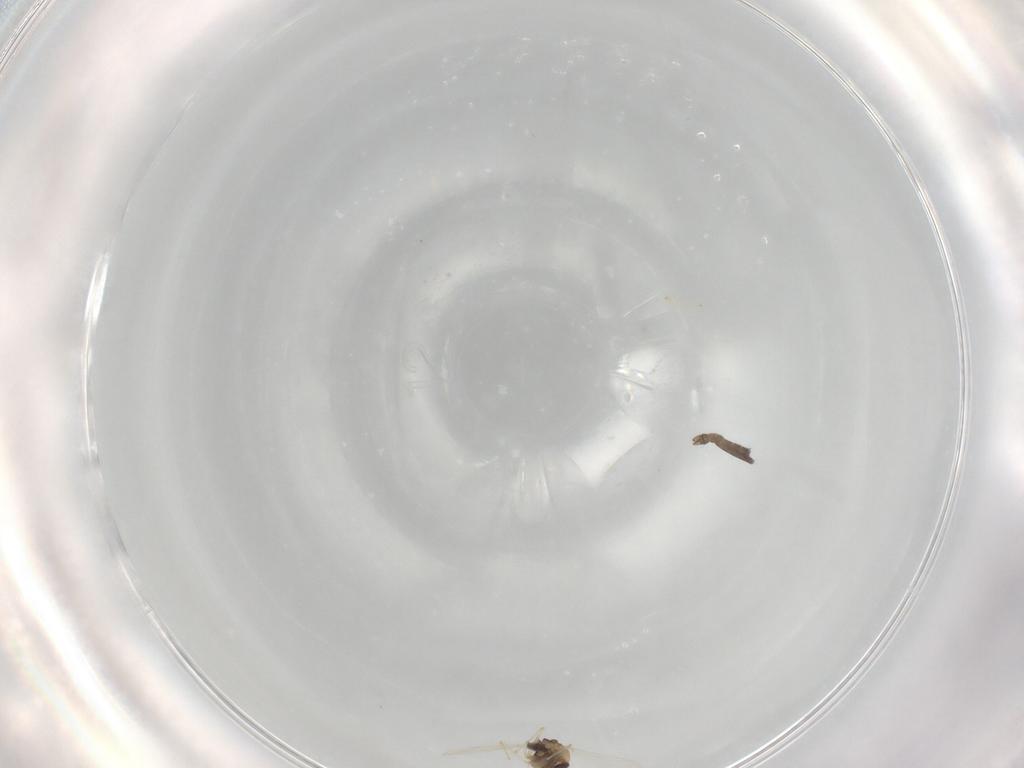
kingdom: Animalia
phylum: Arthropoda
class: Insecta
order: Diptera
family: Cecidomyiidae
